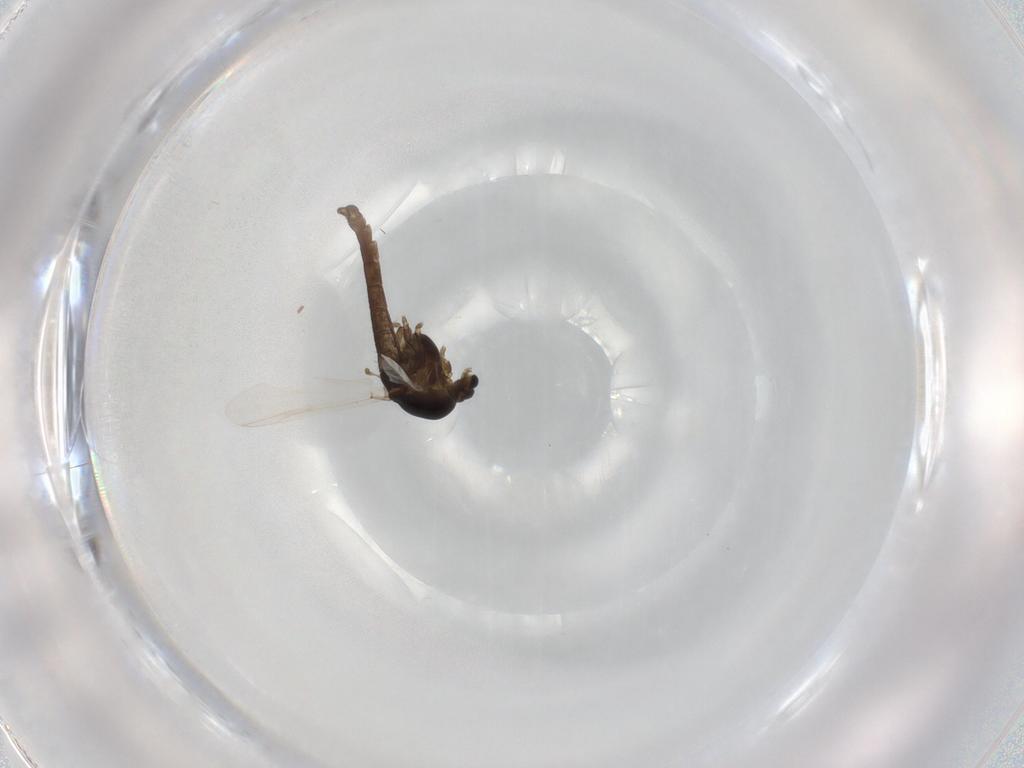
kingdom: Animalia
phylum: Arthropoda
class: Insecta
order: Diptera
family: Chironomidae
